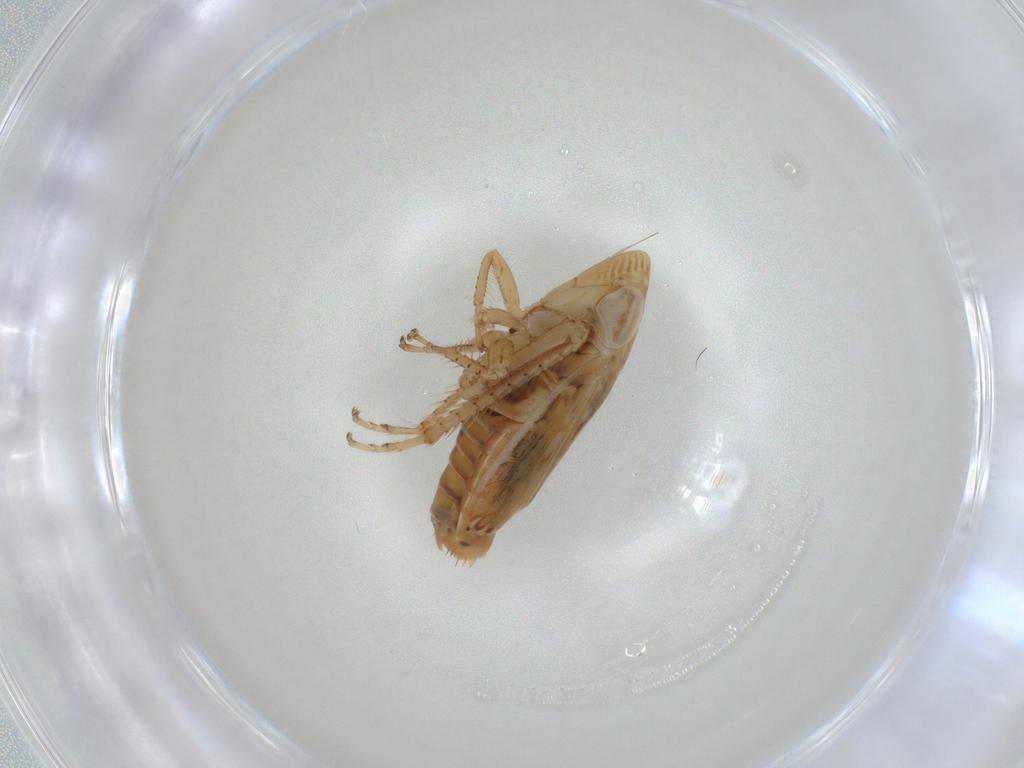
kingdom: Animalia
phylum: Arthropoda
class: Insecta
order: Hemiptera
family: Cicadellidae
